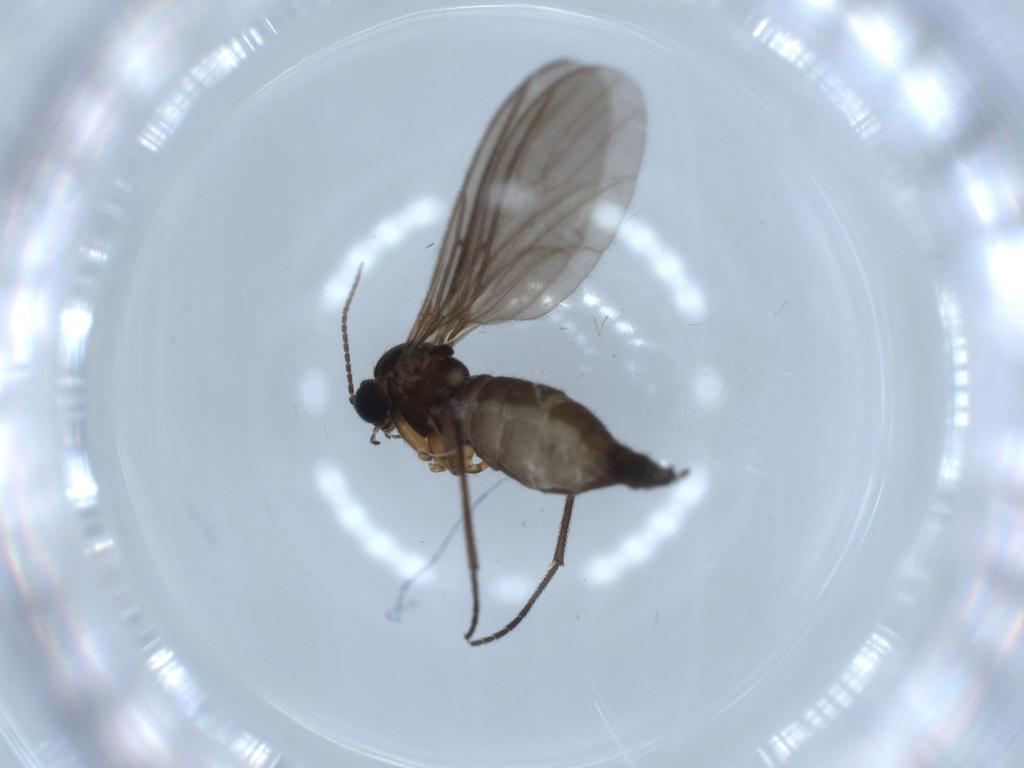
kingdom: Animalia
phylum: Arthropoda
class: Insecta
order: Diptera
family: Sciaridae
